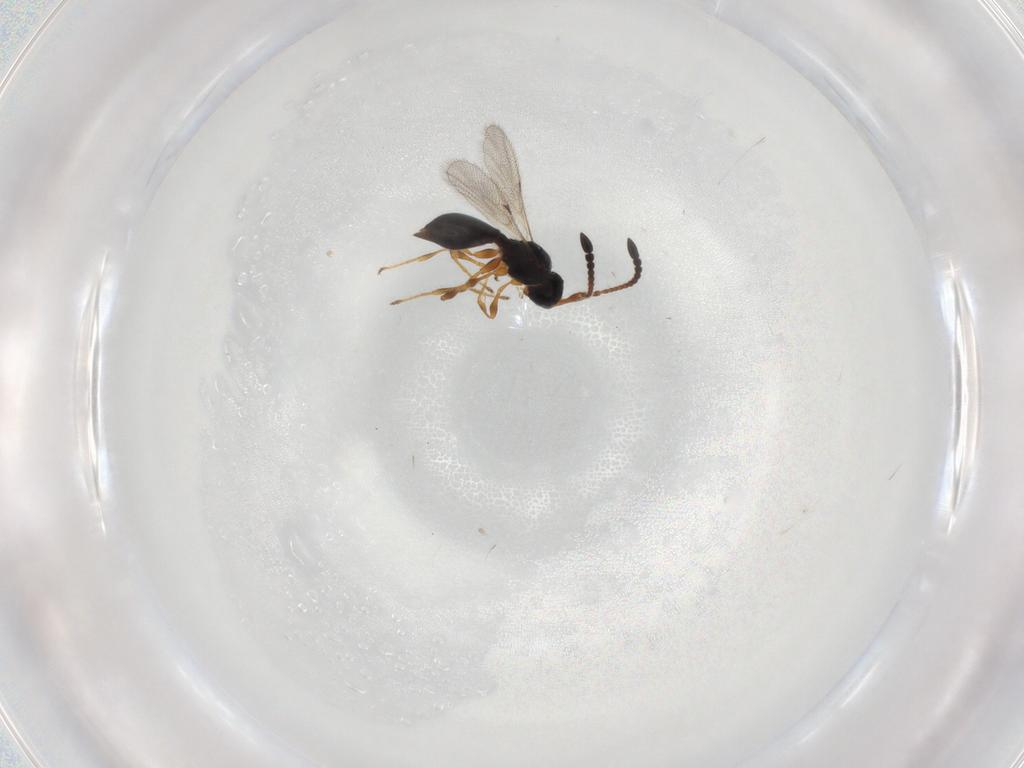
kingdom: Animalia
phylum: Arthropoda
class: Insecta
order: Hymenoptera
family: Diapriidae
